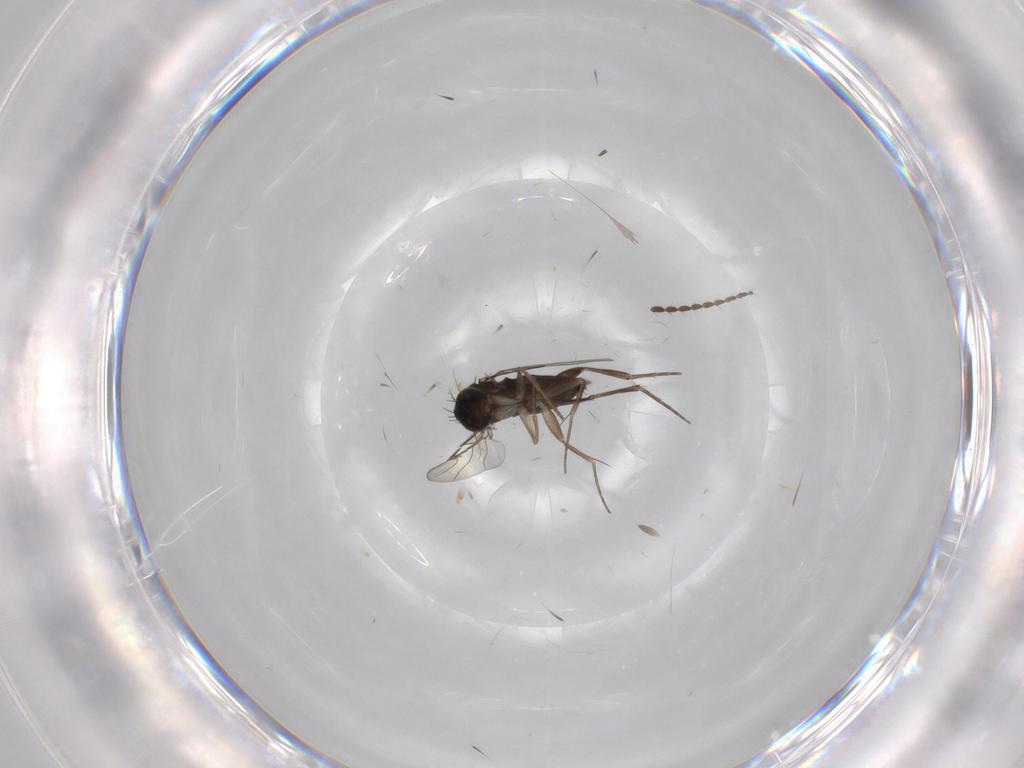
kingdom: Animalia
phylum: Arthropoda
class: Insecta
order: Diptera
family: Phoridae
